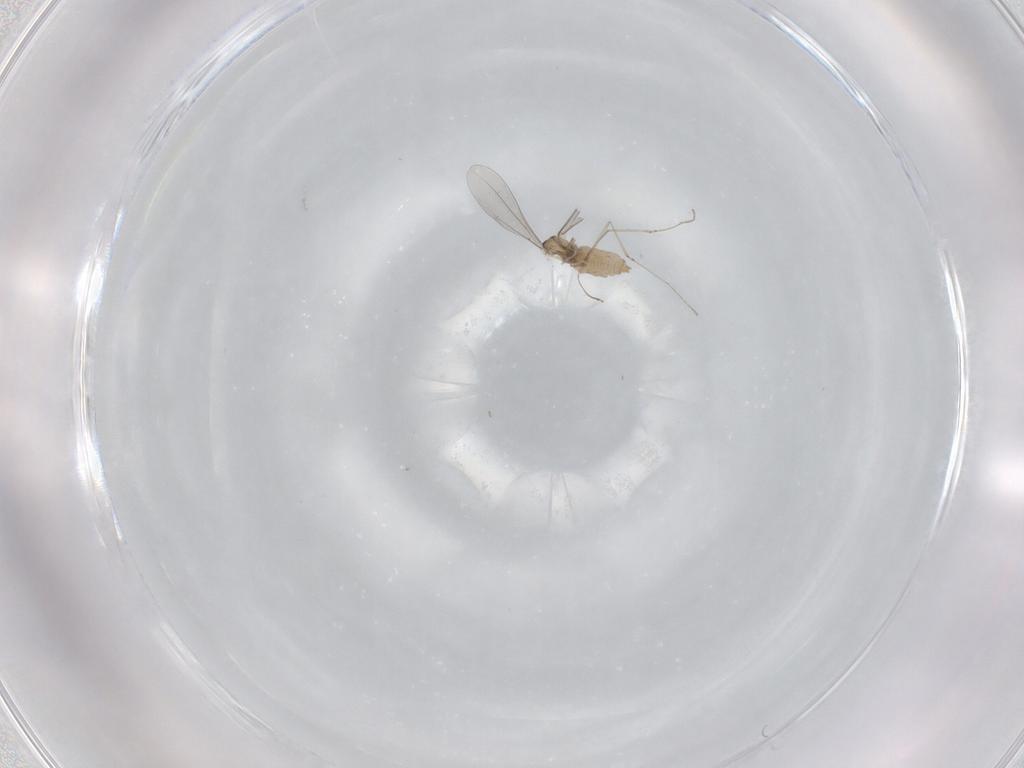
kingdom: Animalia
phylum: Arthropoda
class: Insecta
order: Diptera
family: Cecidomyiidae
